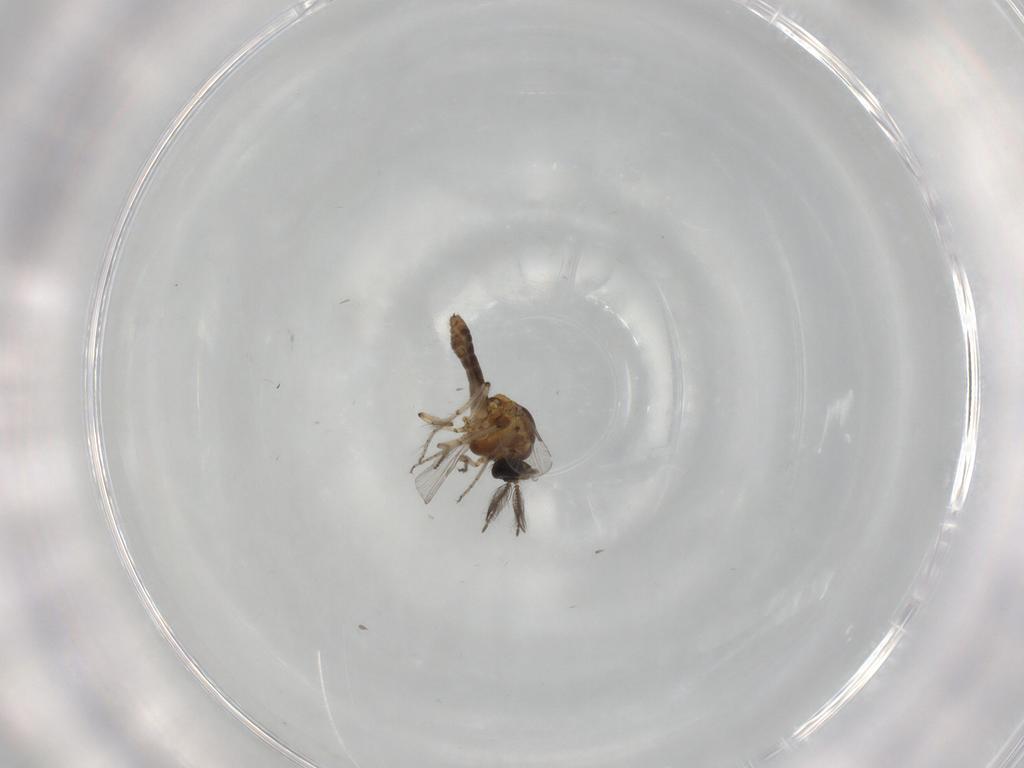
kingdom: Animalia
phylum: Arthropoda
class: Insecta
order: Diptera
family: Ceratopogonidae
